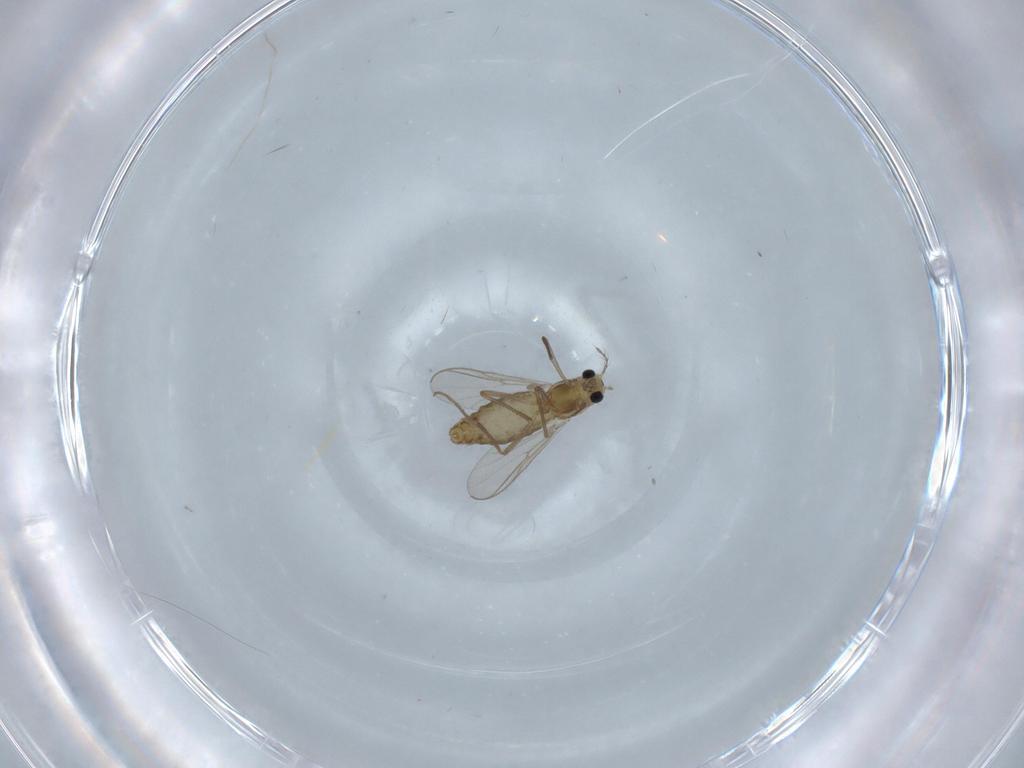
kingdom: Animalia
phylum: Arthropoda
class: Insecta
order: Diptera
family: Chironomidae
